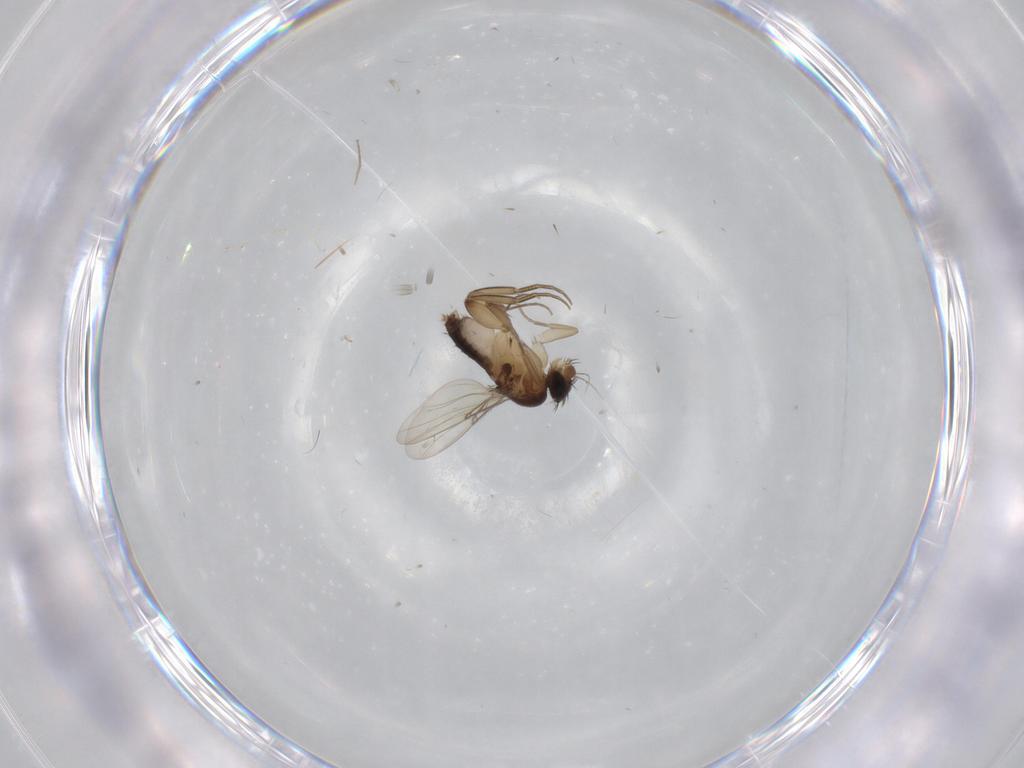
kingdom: Animalia
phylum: Arthropoda
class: Insecta
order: Diptera
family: Phoridae
